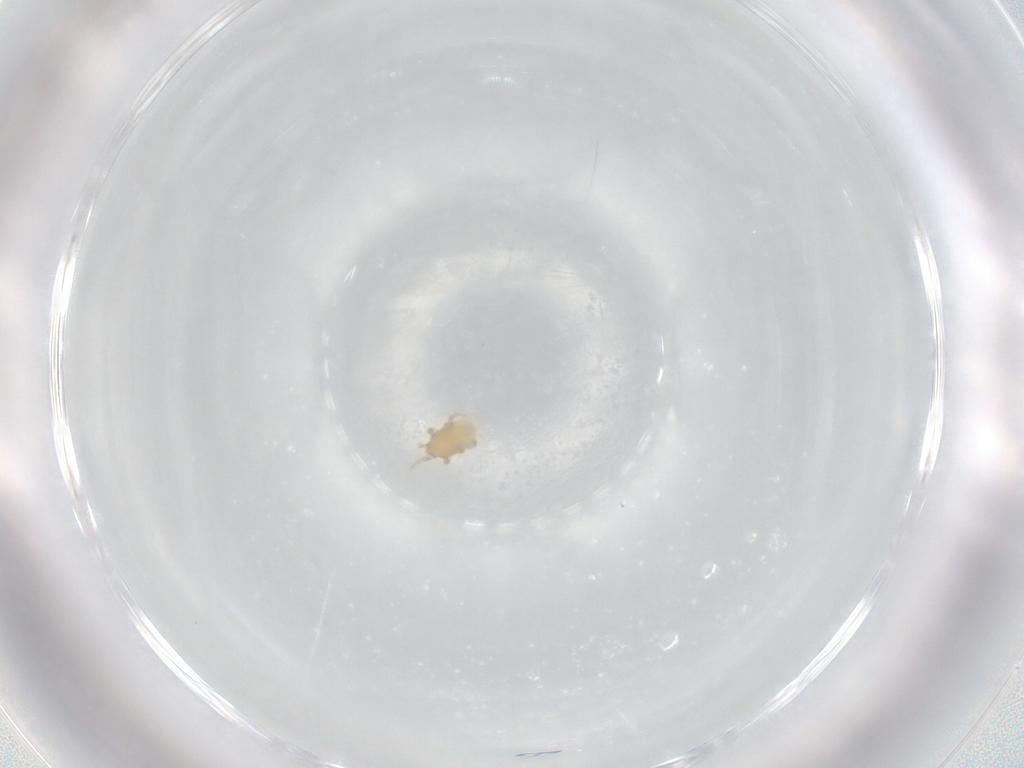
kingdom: Animalia
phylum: Arthropoda
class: Arachnida
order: Mesostigmata
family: Melicharidae
